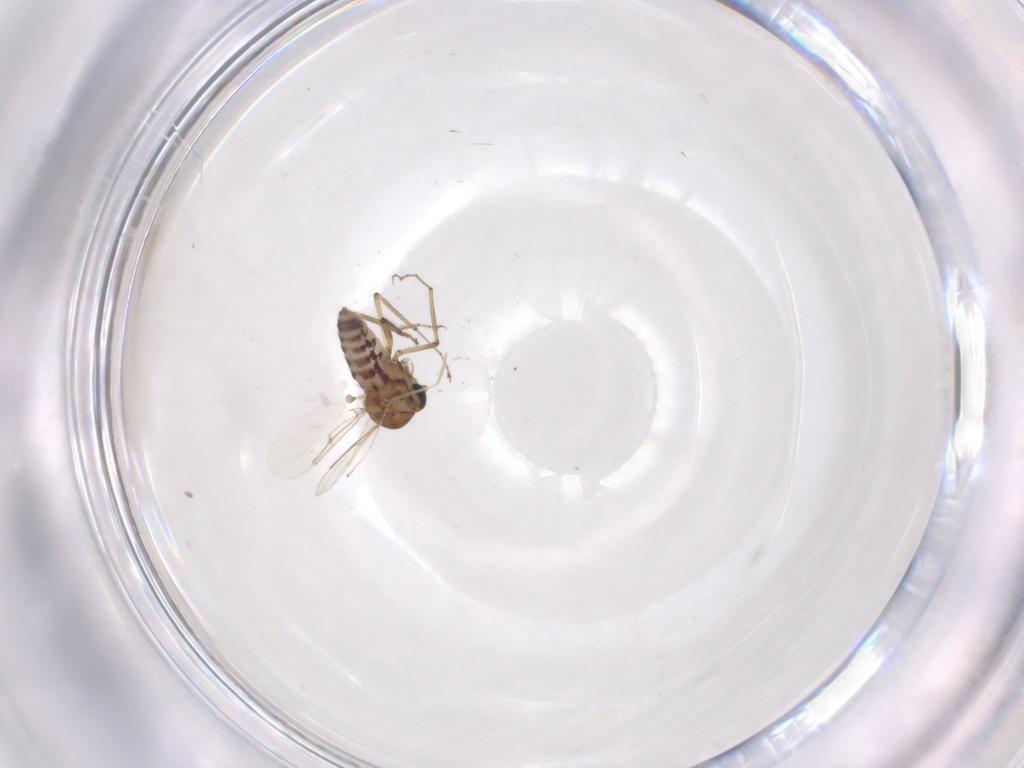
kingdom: Animalia
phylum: Arthropoda
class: Insecta
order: Diptera
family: Ceratopogonidae
